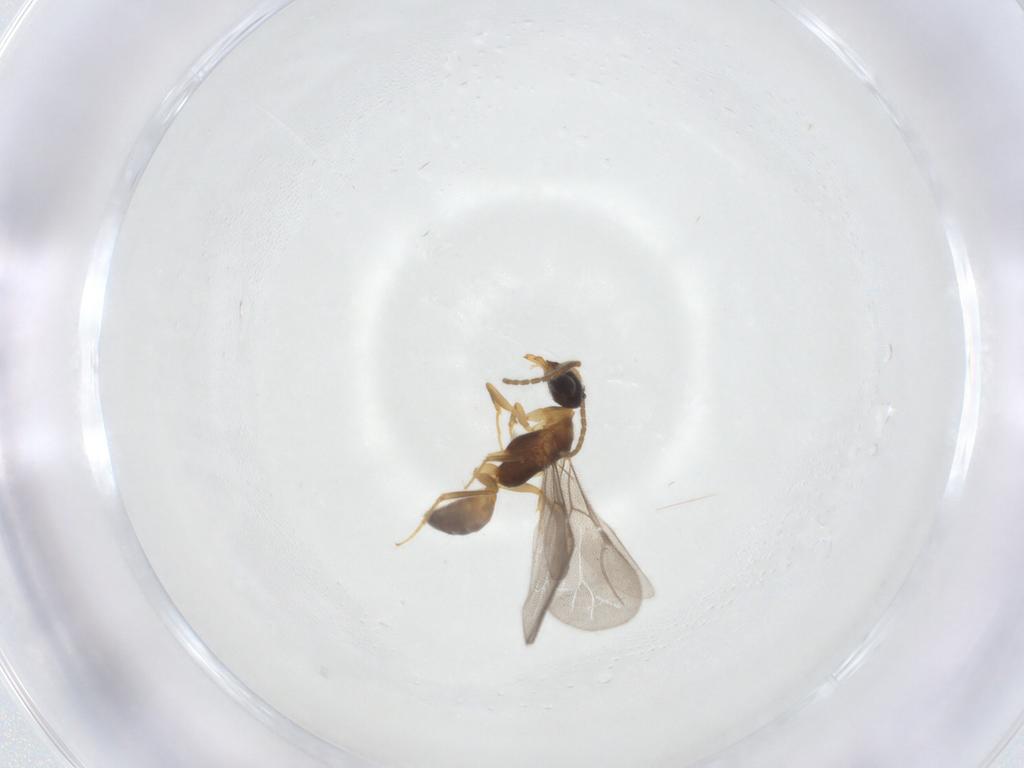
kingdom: Animalia
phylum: Arthropoda
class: Insecta
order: Hymenoptera
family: Bethylidae
